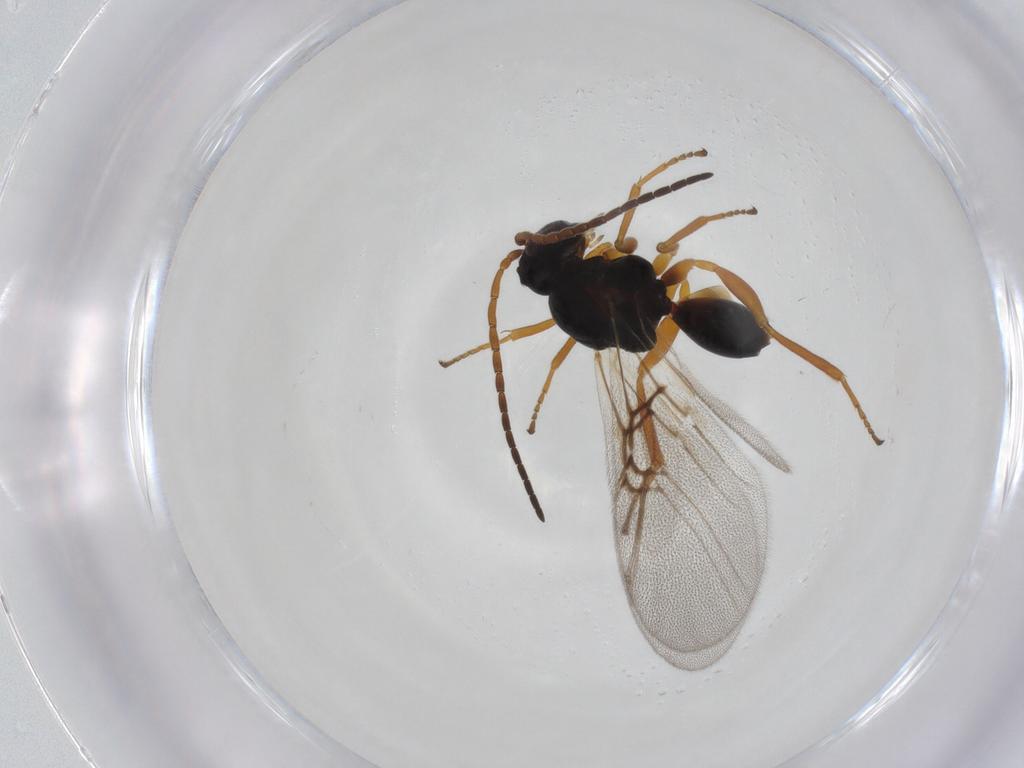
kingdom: Animalia
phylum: Arthropoda
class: Insecta
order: Hymenoptera
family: Cynipidae
